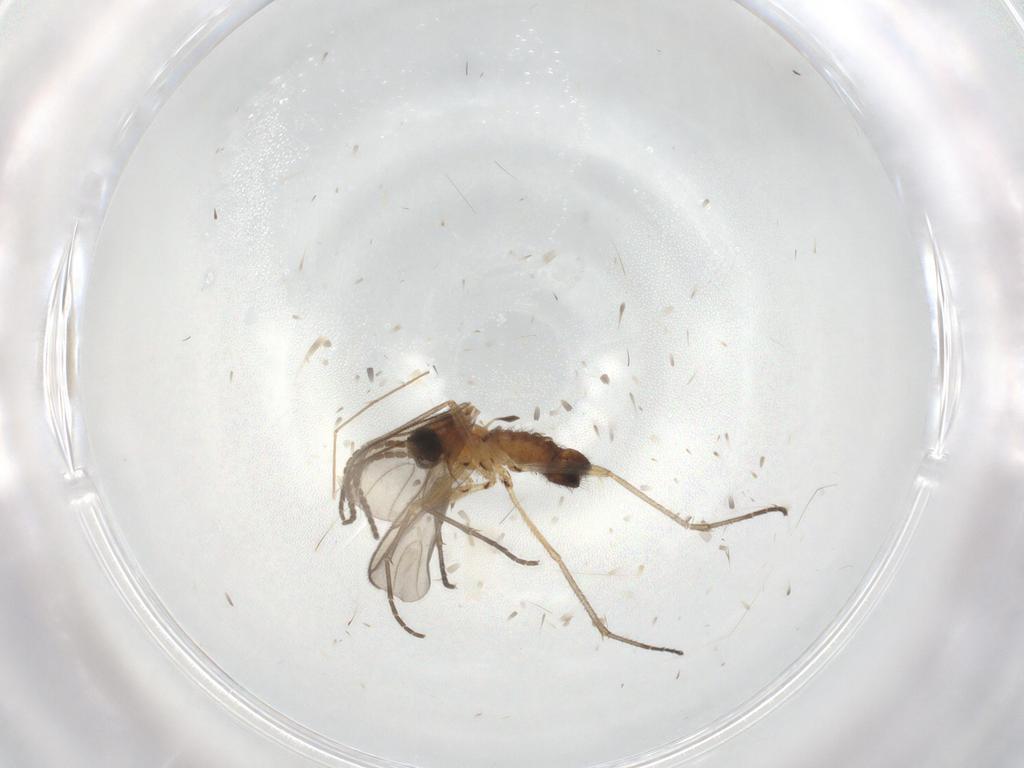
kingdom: Animalia
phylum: Arthropoda
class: Insecta
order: Diptera
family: Sciaridae
